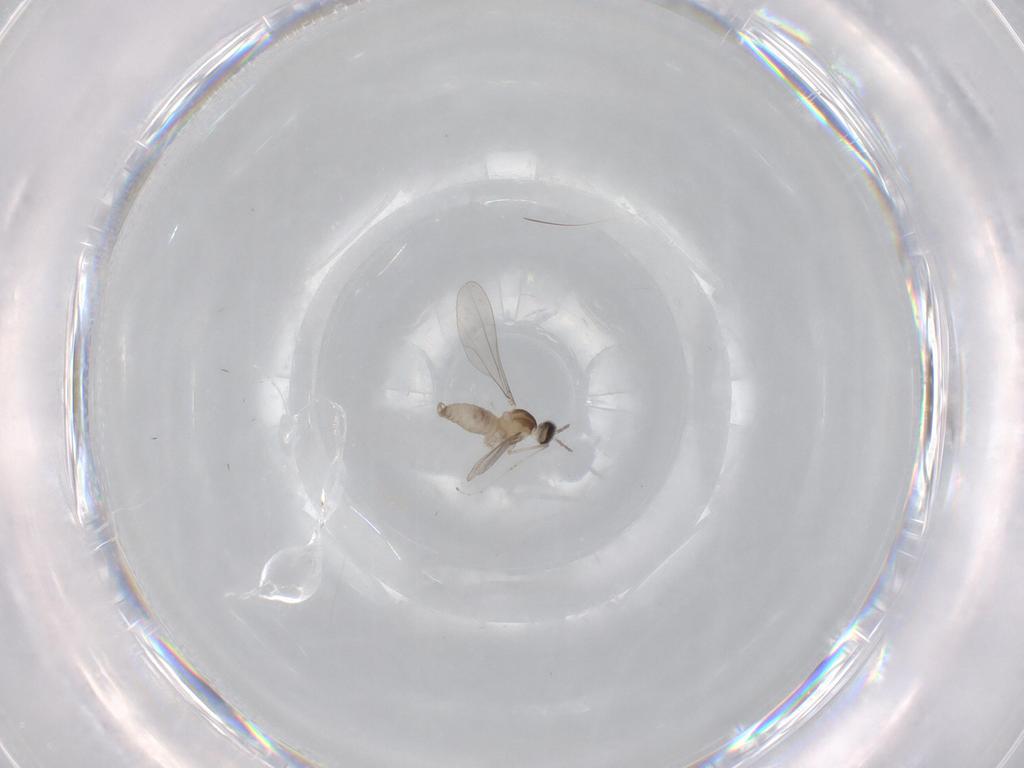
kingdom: Animalia
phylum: Arthropoda
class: Insecta
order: Diptera
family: Cecidomyiidae
